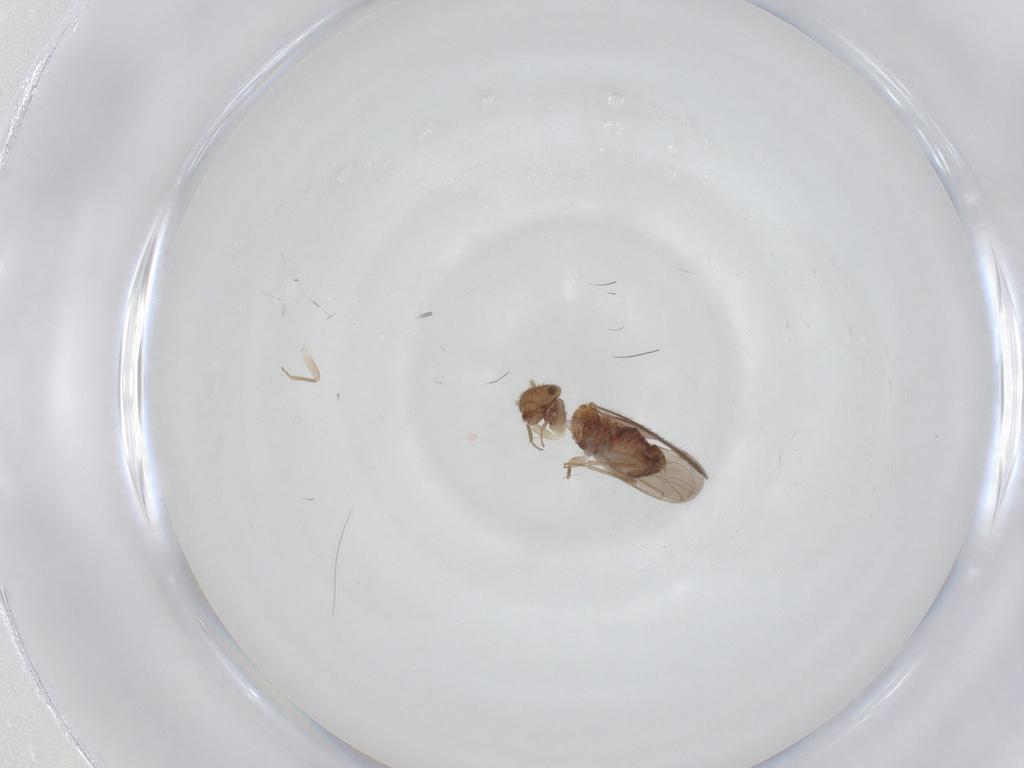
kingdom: Animalia
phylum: Arthropoda
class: Insecta
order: Psocodea
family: Ectopsocidae
